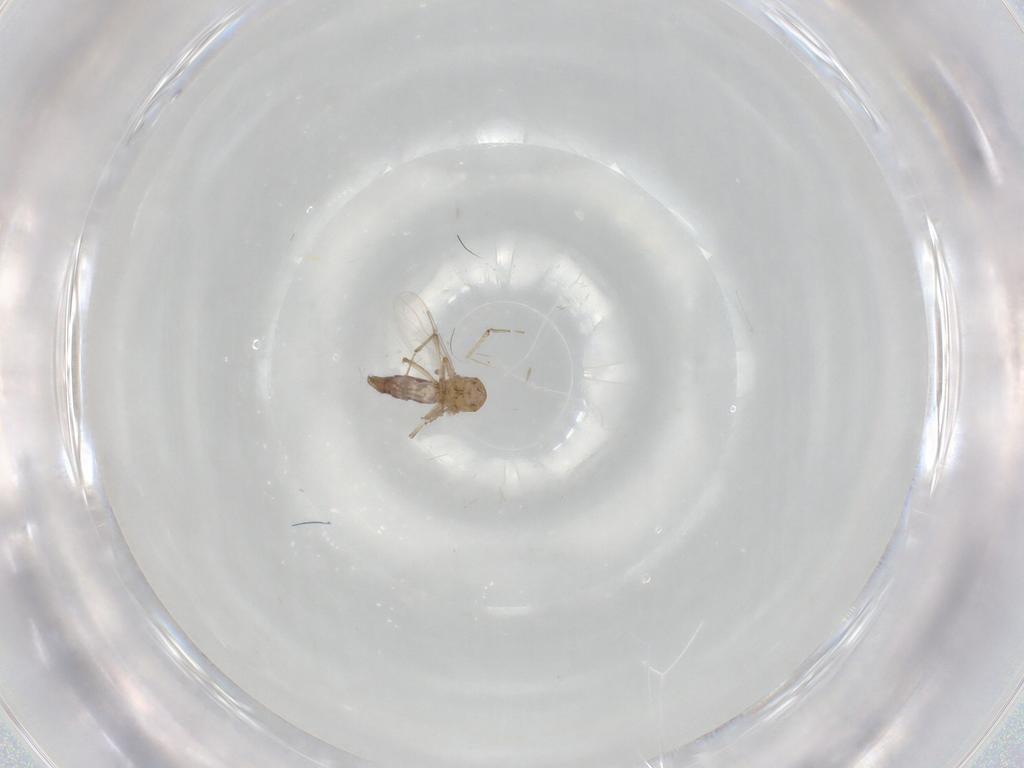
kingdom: Animalia
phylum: Arthropoda
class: Insecta
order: Diptera
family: Ceratopogonidae
